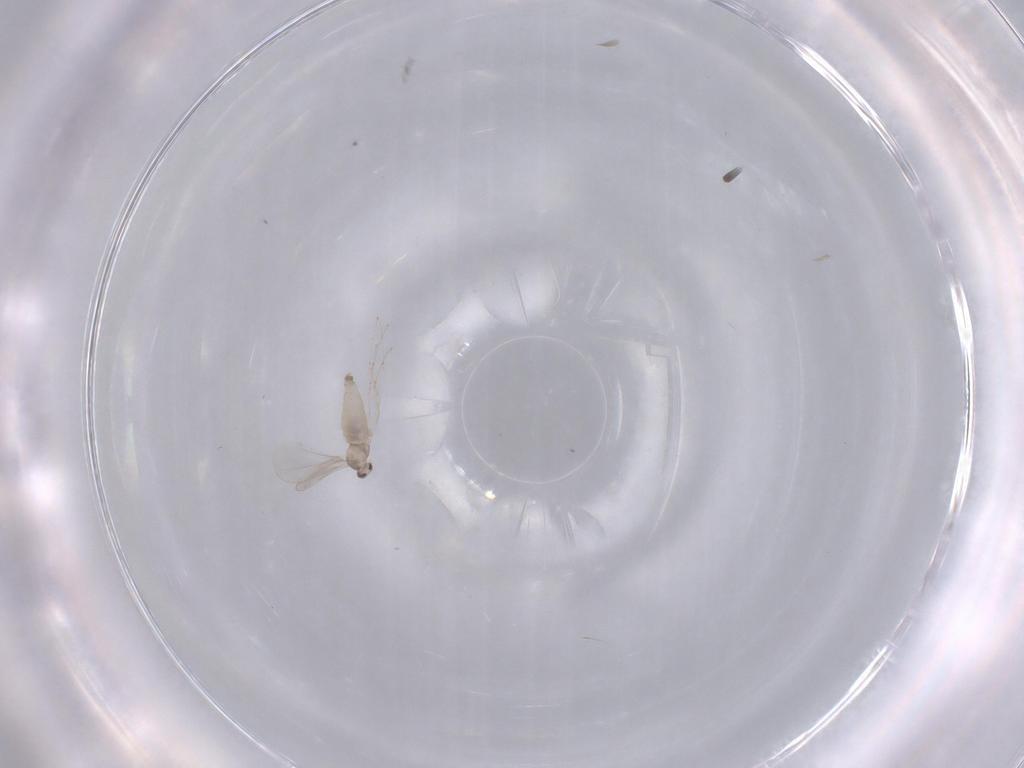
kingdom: Animalia
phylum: Arthropoda
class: Insecta
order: Diptera
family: Cecidomyiidae
